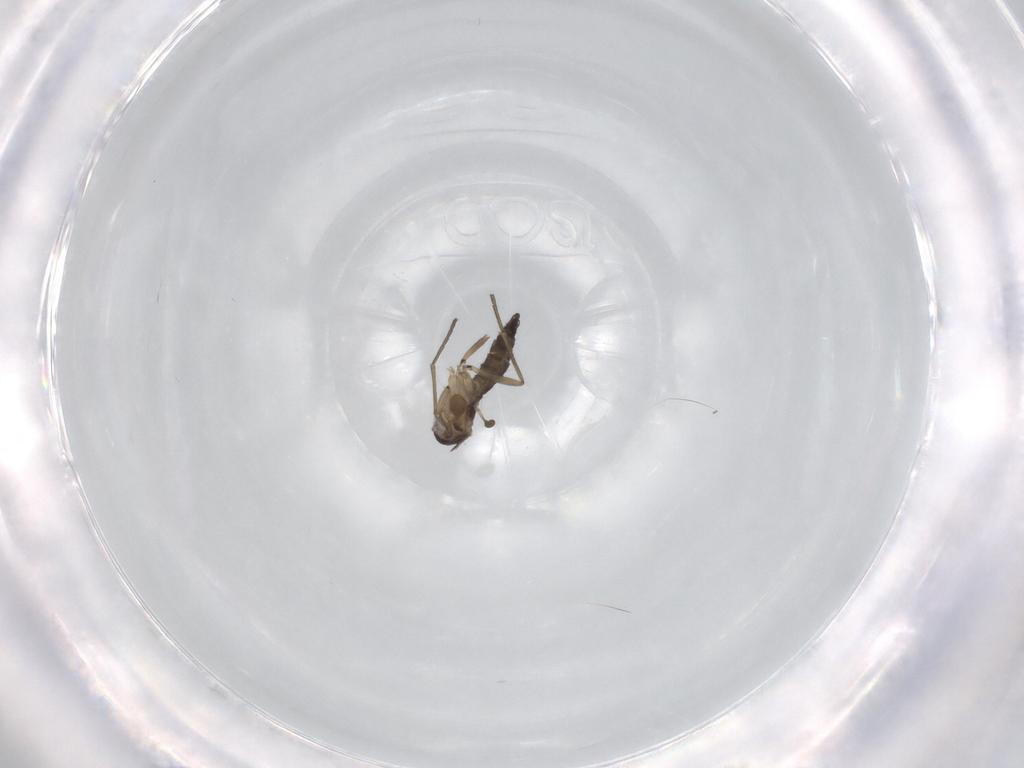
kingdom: Animalia
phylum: Arthropoda
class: Insecta
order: Diptera
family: Sciaridae
